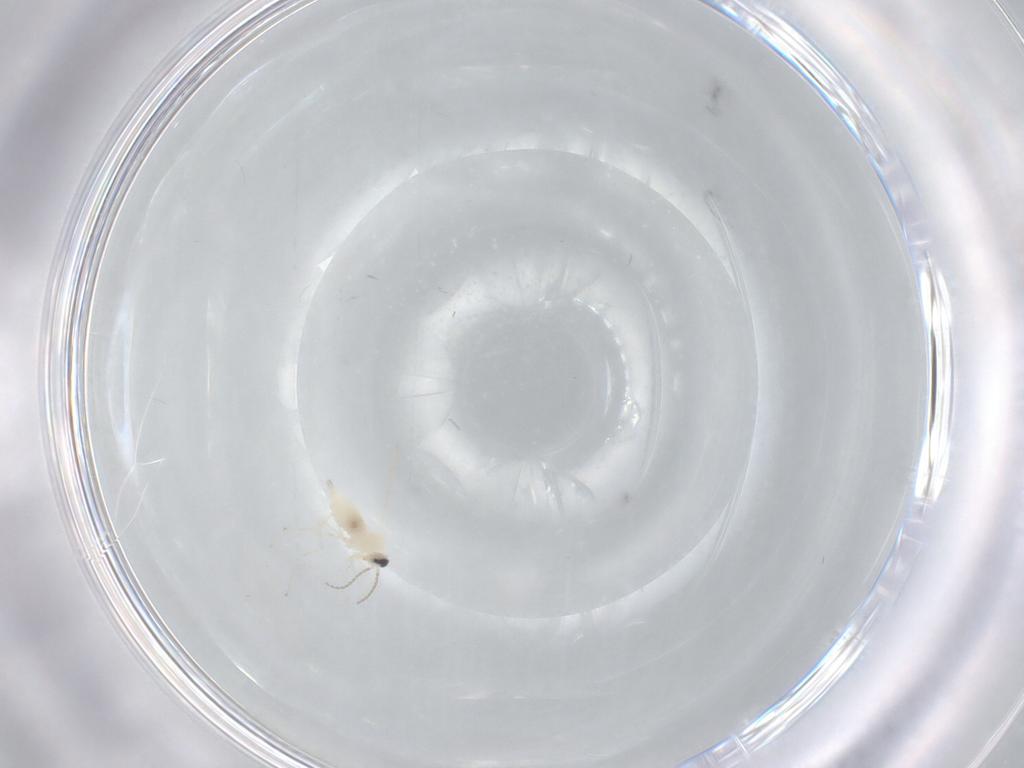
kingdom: Animalia
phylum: Arthropoda
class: Insecta
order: Diptera
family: Cecidomyiidae
